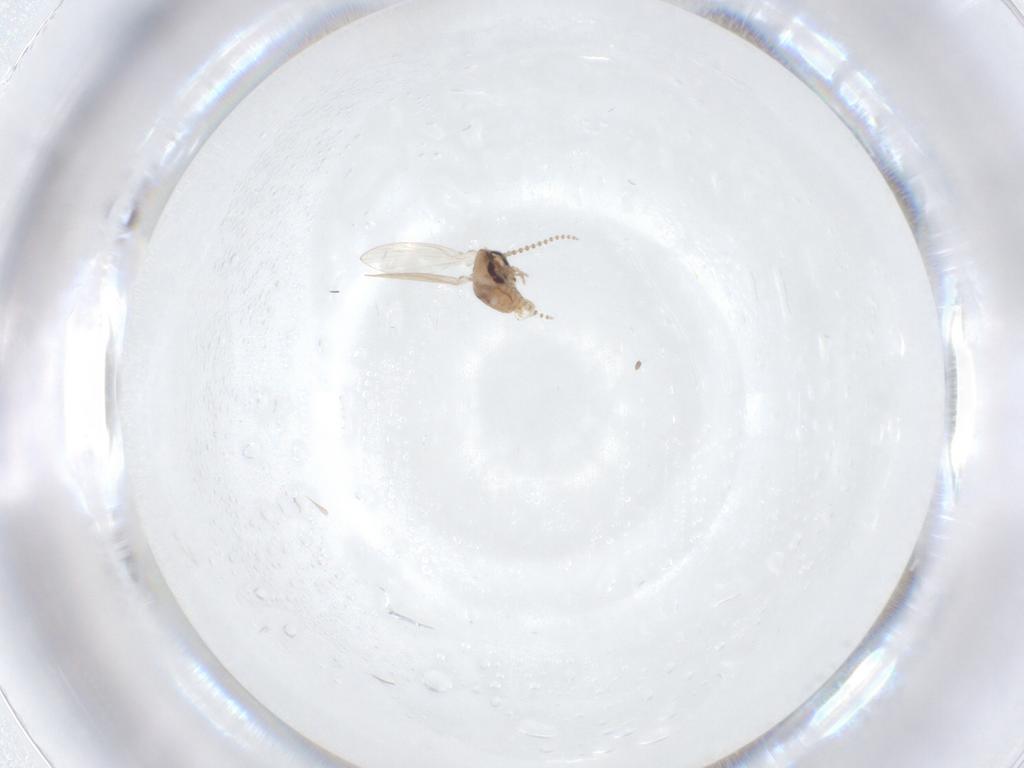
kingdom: Animalia
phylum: Arthropoda
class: Insecta
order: Diptera
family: Psychodidae
